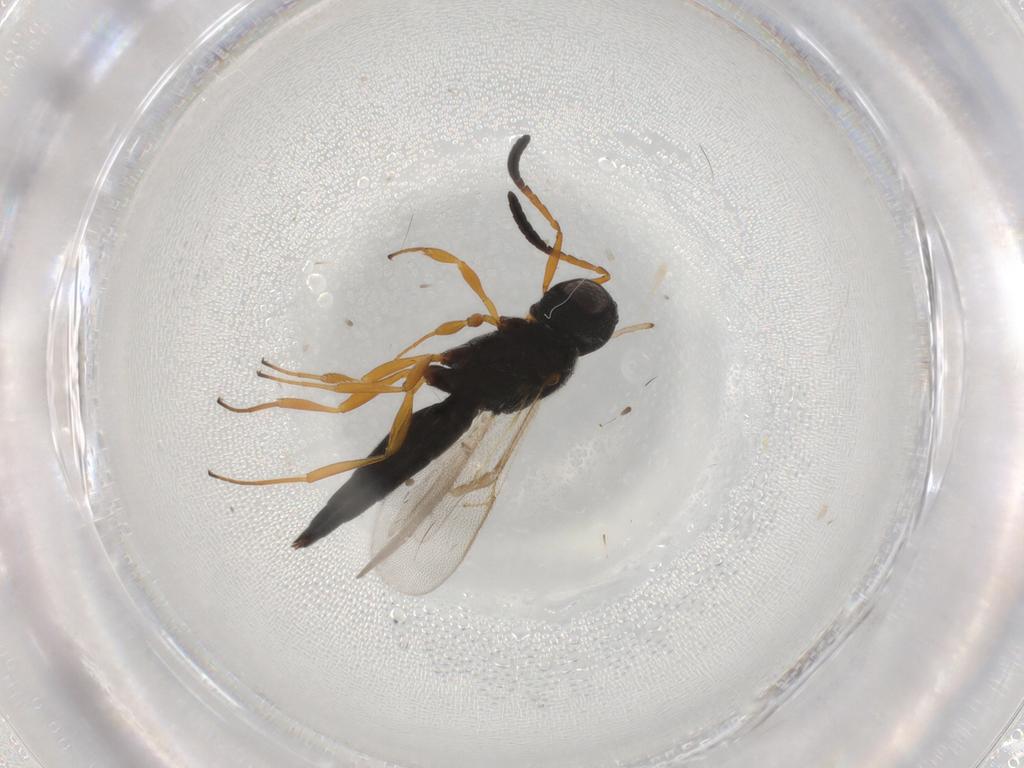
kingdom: Animalia
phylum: Arthropoda
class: Insecta
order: Hymenoptera
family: Scelionidae
